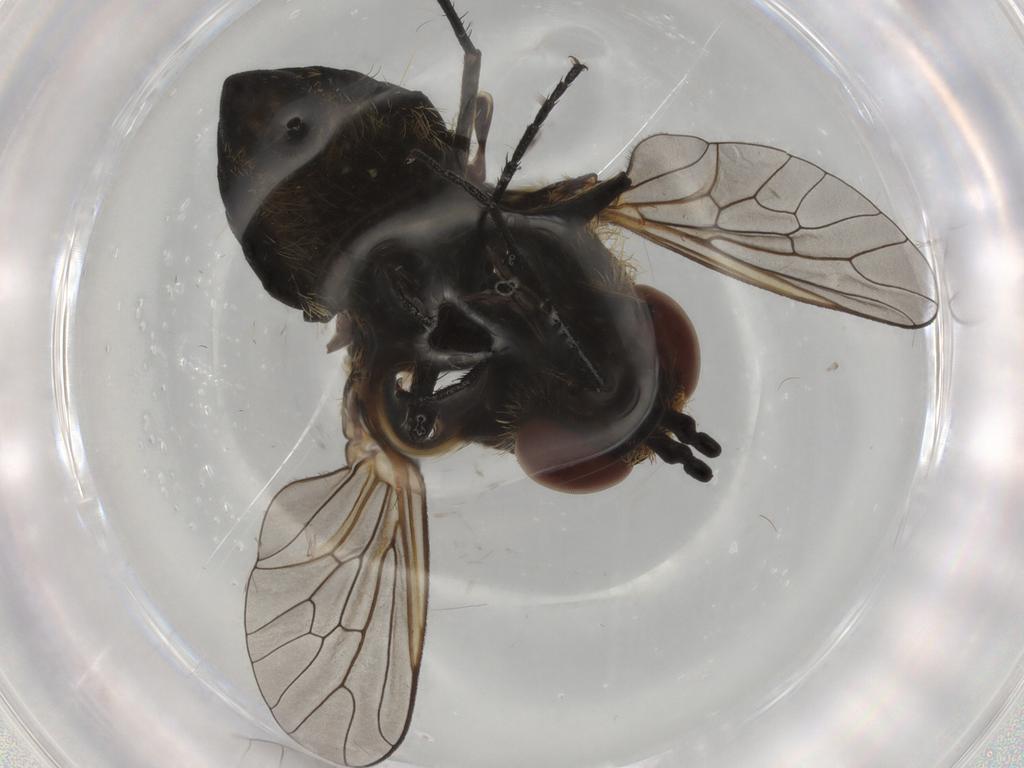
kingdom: Animalia
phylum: Arthropoda
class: Insecta
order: Diptera
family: Bombyliidae
